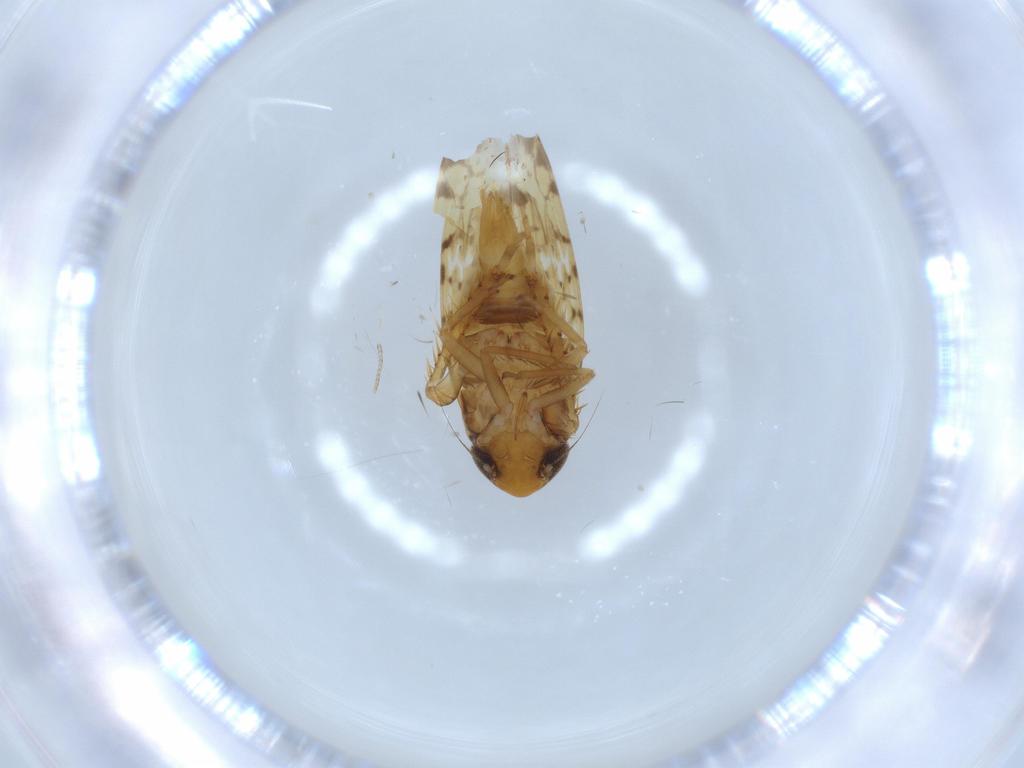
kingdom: Animalia
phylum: Arthropoda
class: Insecta
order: Hemiptera
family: Cicadellidae
